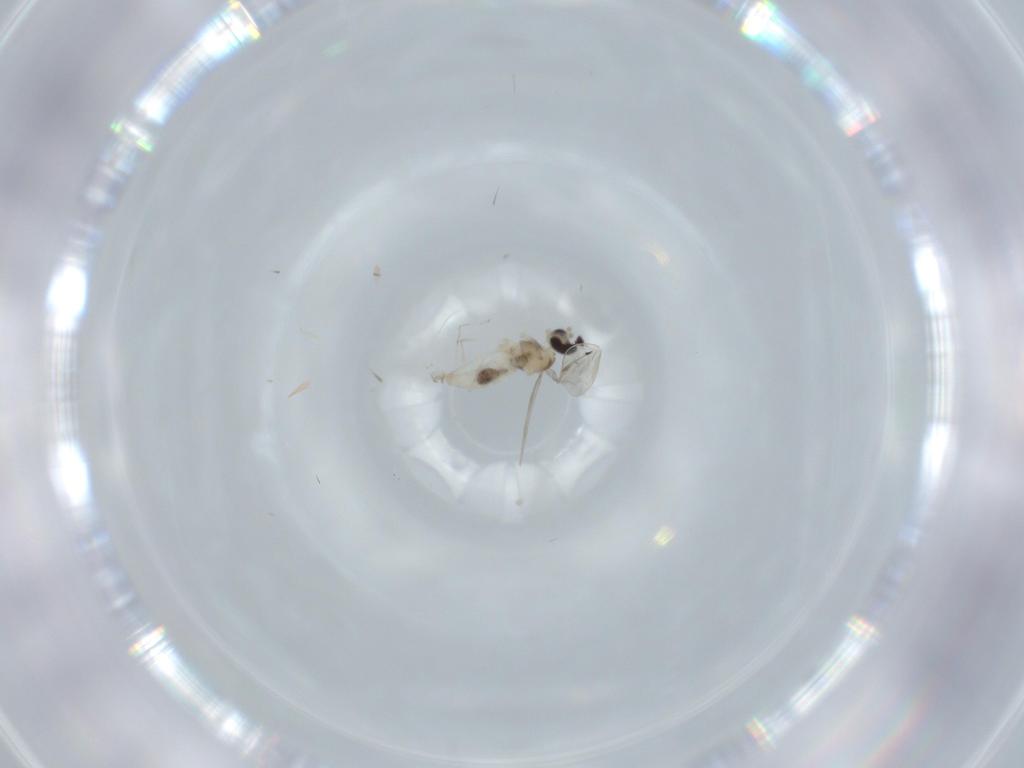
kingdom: Animalia
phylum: Arthropoda
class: Insecta
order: Diptera
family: Cecidomyiidae
